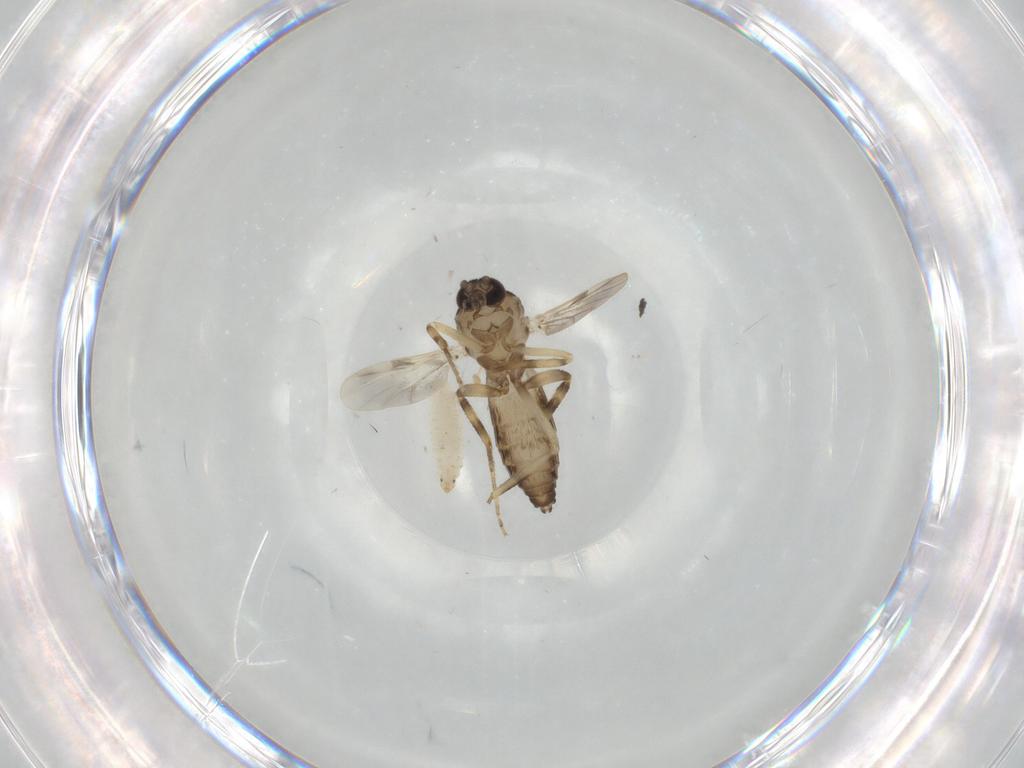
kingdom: Animalia
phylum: Arthropoda
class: Insecta
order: Diptera
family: Ceratopogonidae
